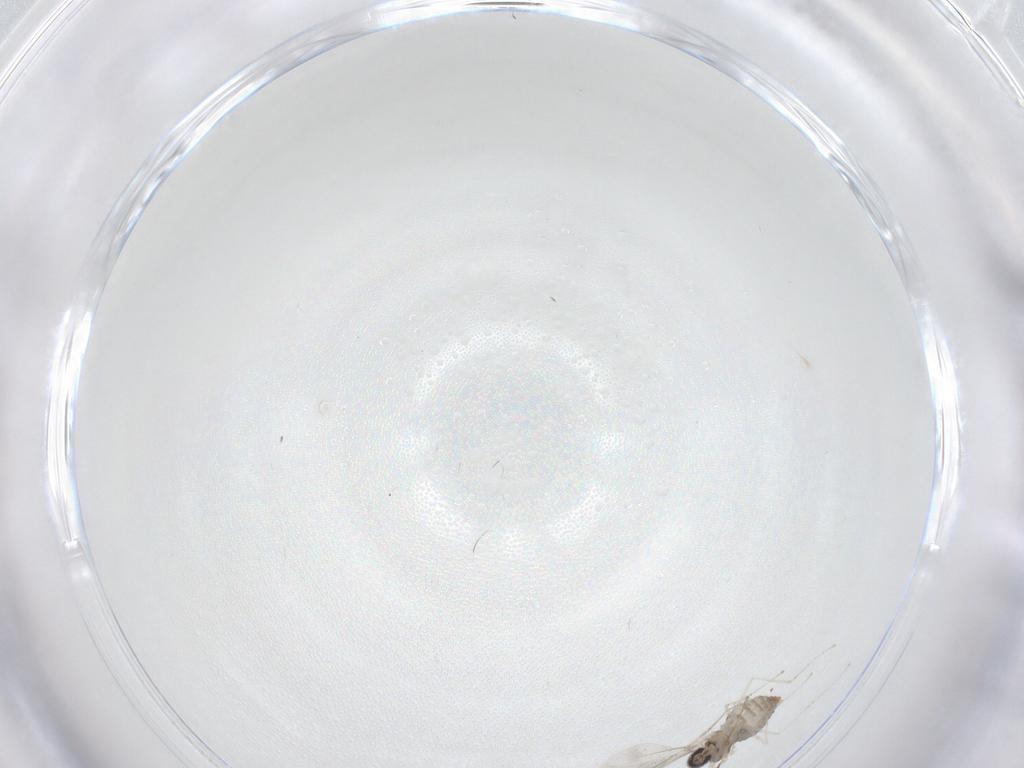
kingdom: Animalia
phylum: Arthropoda
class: Insecta
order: Diptera
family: Cecidomyiidae
